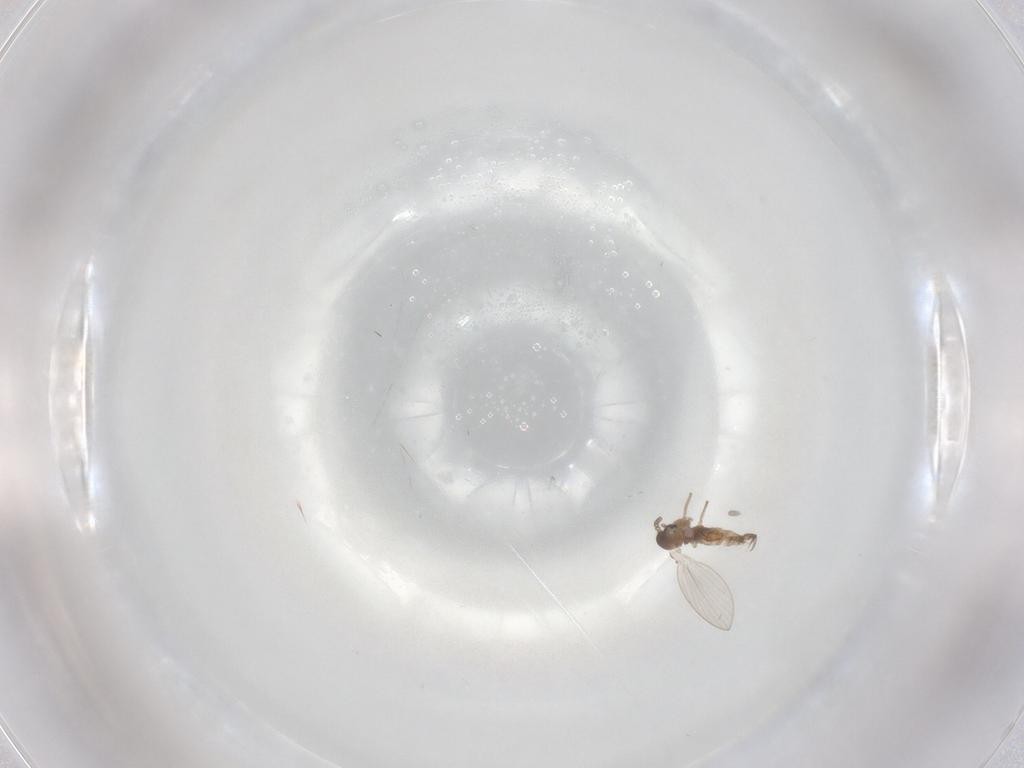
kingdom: Animalia
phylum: Arthropoda
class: Insecta
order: Diptera
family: Psychodidae
